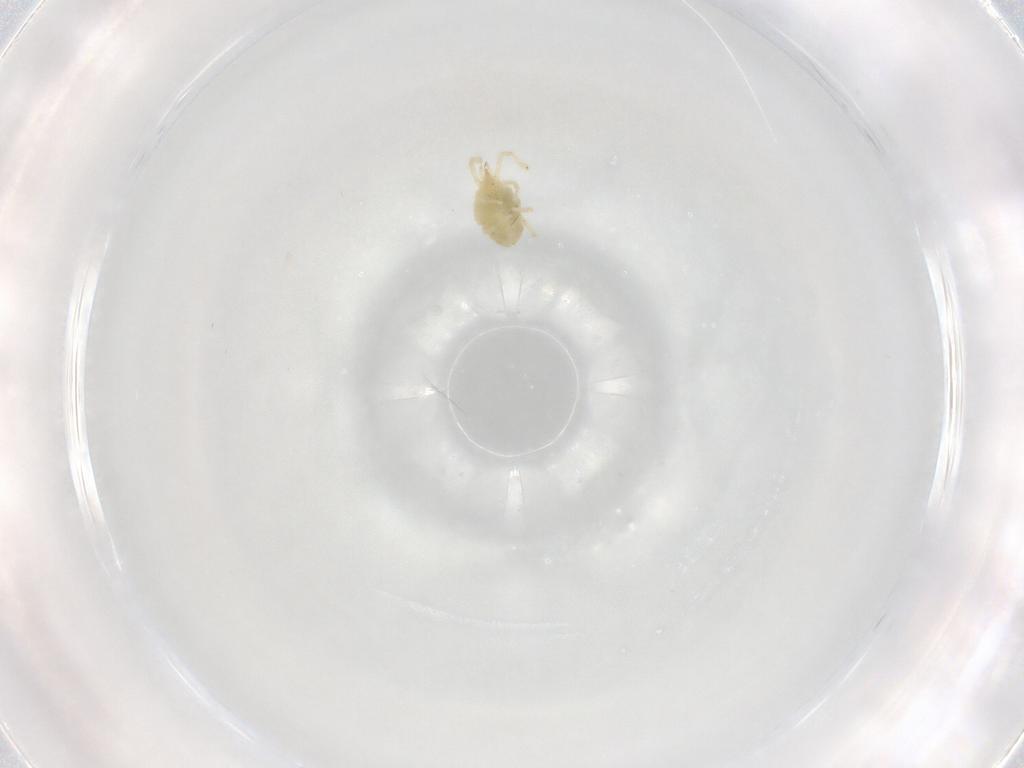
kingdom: Animalia
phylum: Arthropoda
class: Arachnida
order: Trombidiformes
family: Erythraeidae
